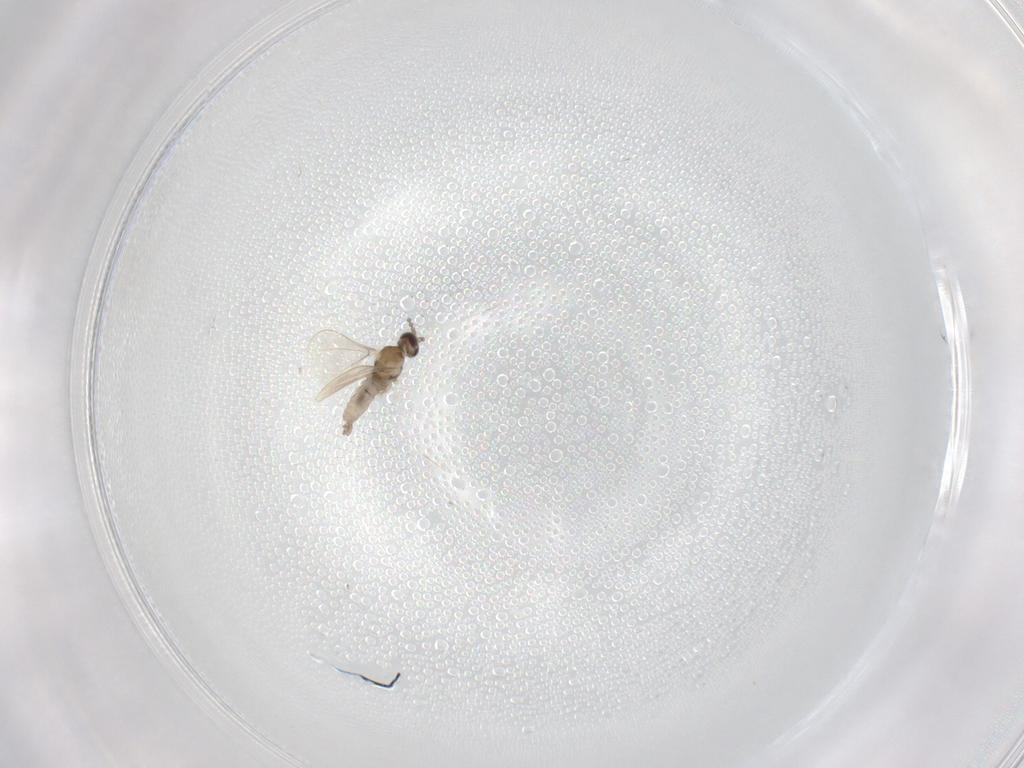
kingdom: Animalia
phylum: Arthropoda
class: Insecta
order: Diptera
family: Cecidomyiidae
